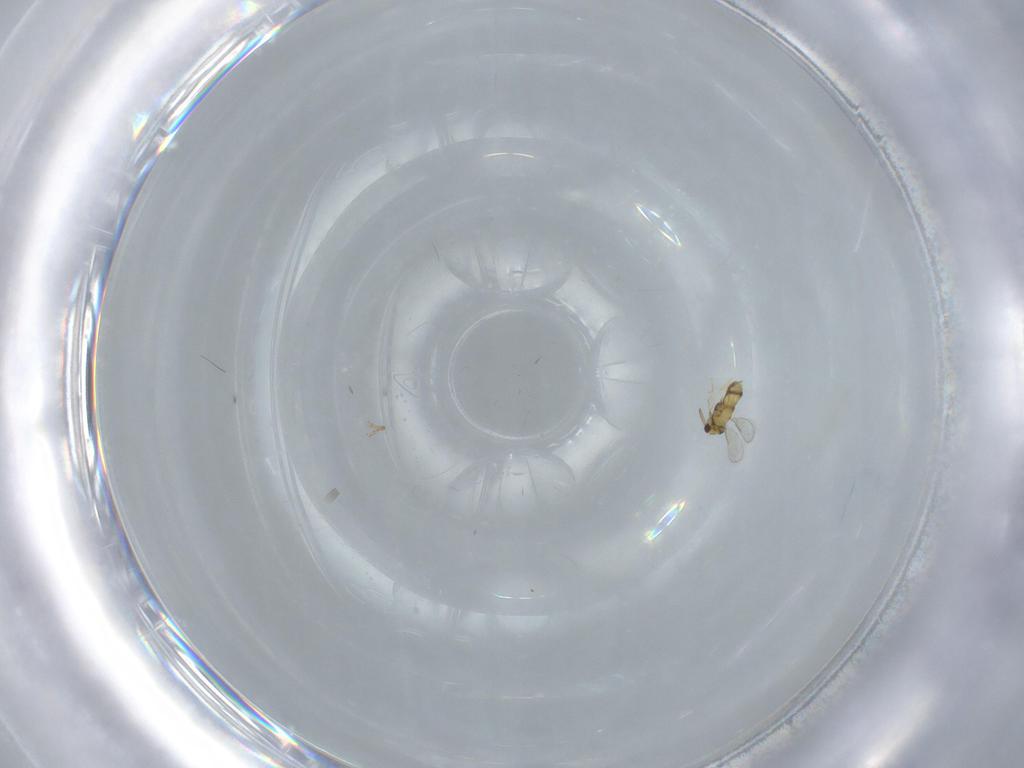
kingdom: Animalia
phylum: Arthropoda
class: Insecta
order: Hymenoptera
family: Aphelinidae
